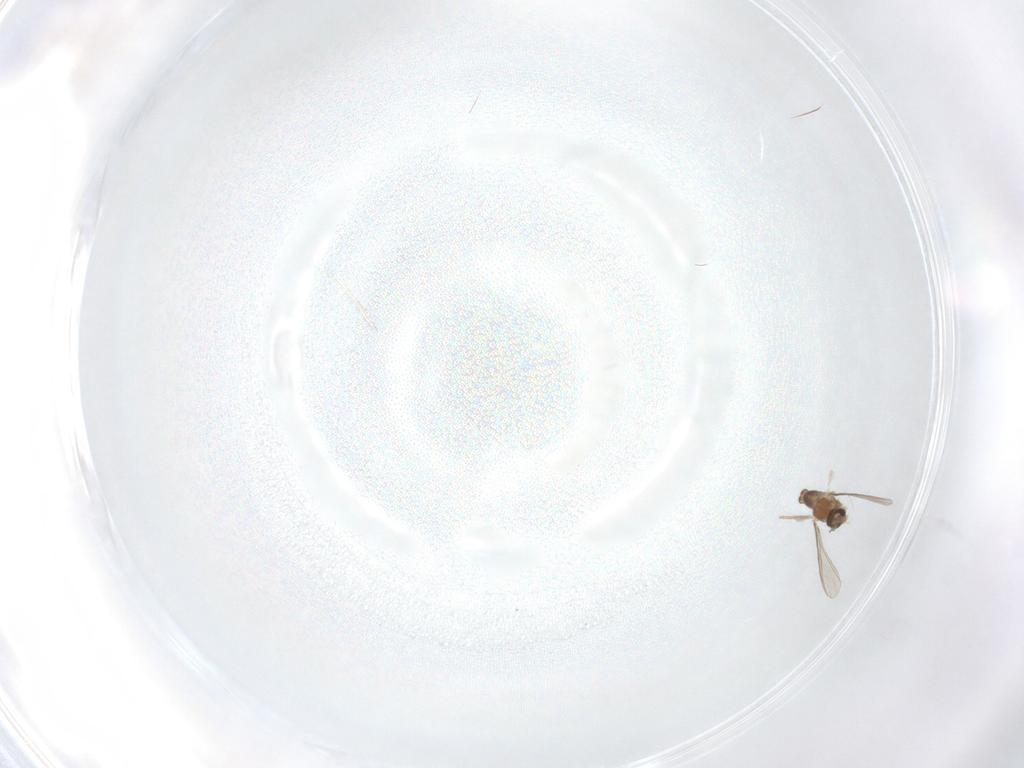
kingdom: Animalia
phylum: Arthropoda
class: Insecta
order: Diptera
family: Cecidomyiidae
